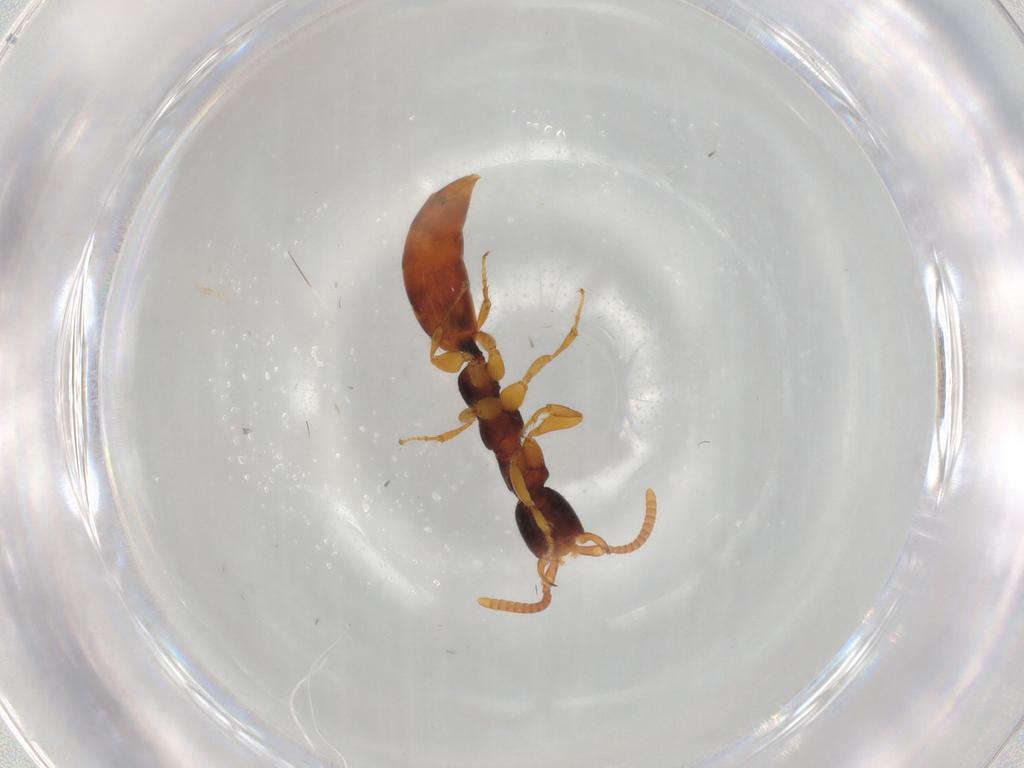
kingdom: Animalia
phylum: Arthropoda
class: Insecta
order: Hymenoptera
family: Bethylidae
